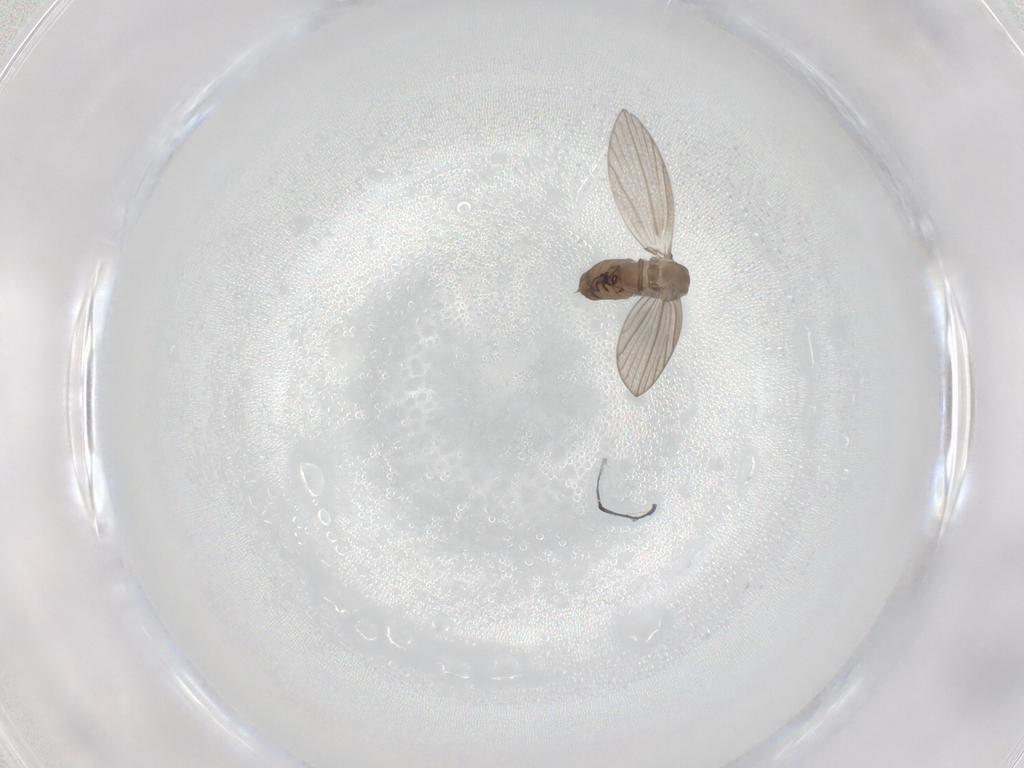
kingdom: Animalia
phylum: Arthropoda
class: Insecta
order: Diptera
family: Psychodidae
